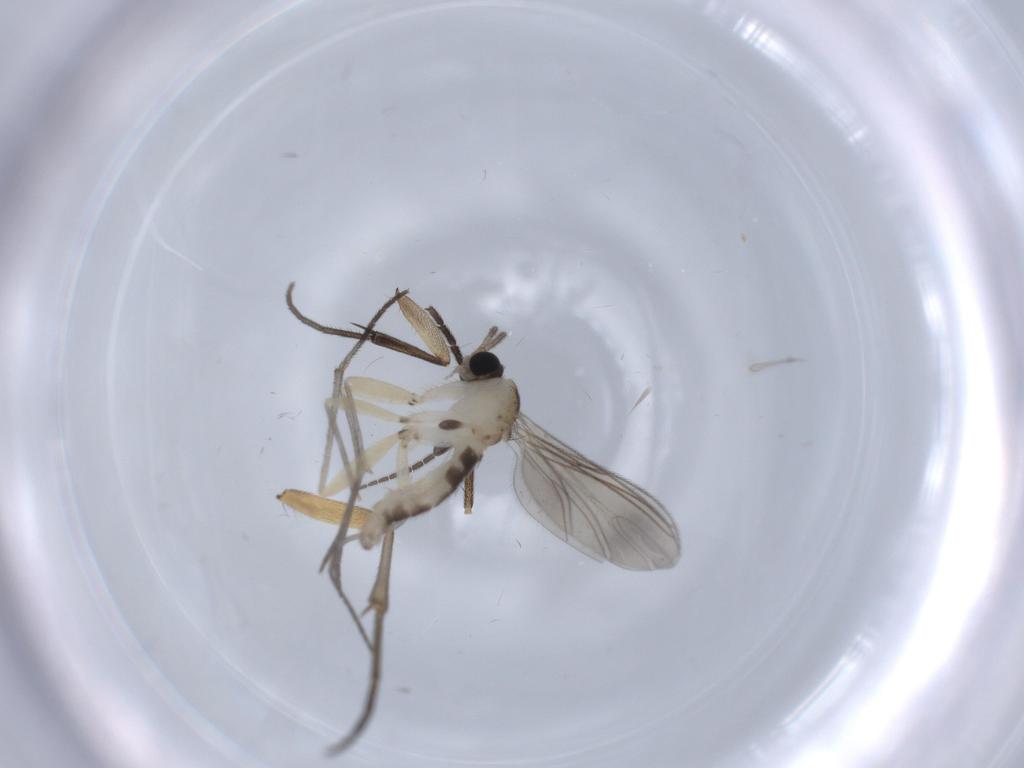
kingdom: Animalia
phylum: Arthropoda
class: Insecta
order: Diptera
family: Sciaridae
